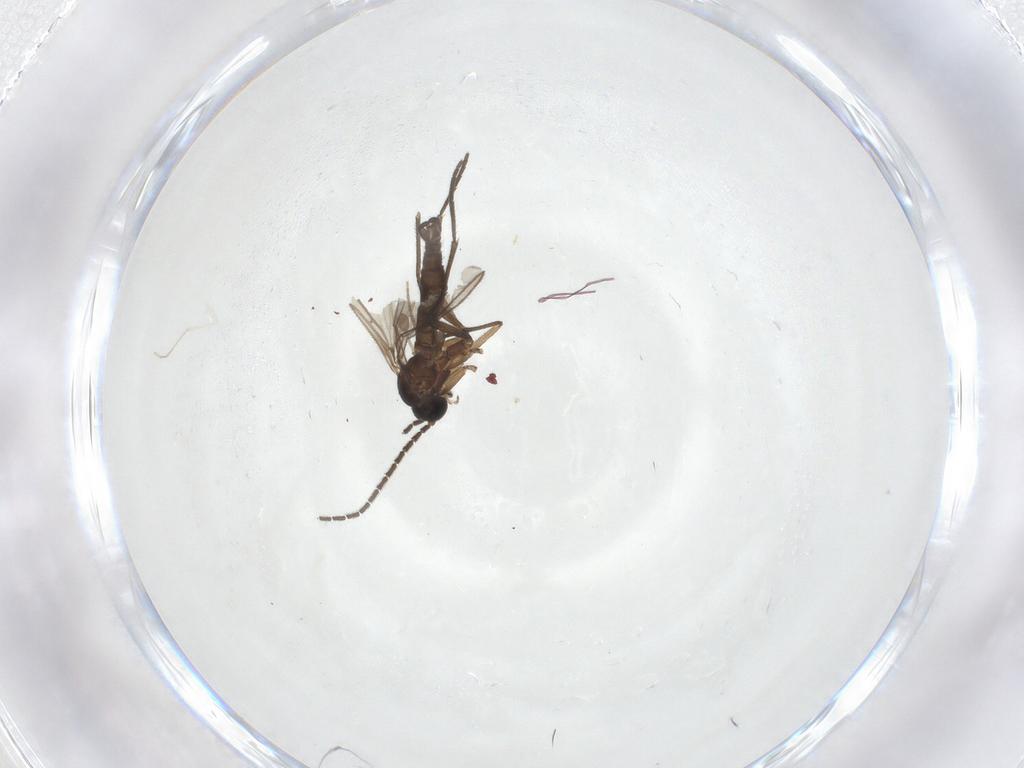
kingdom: Animalia
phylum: Arthropoda
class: Insecta
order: Diptera
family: Sciaridae
